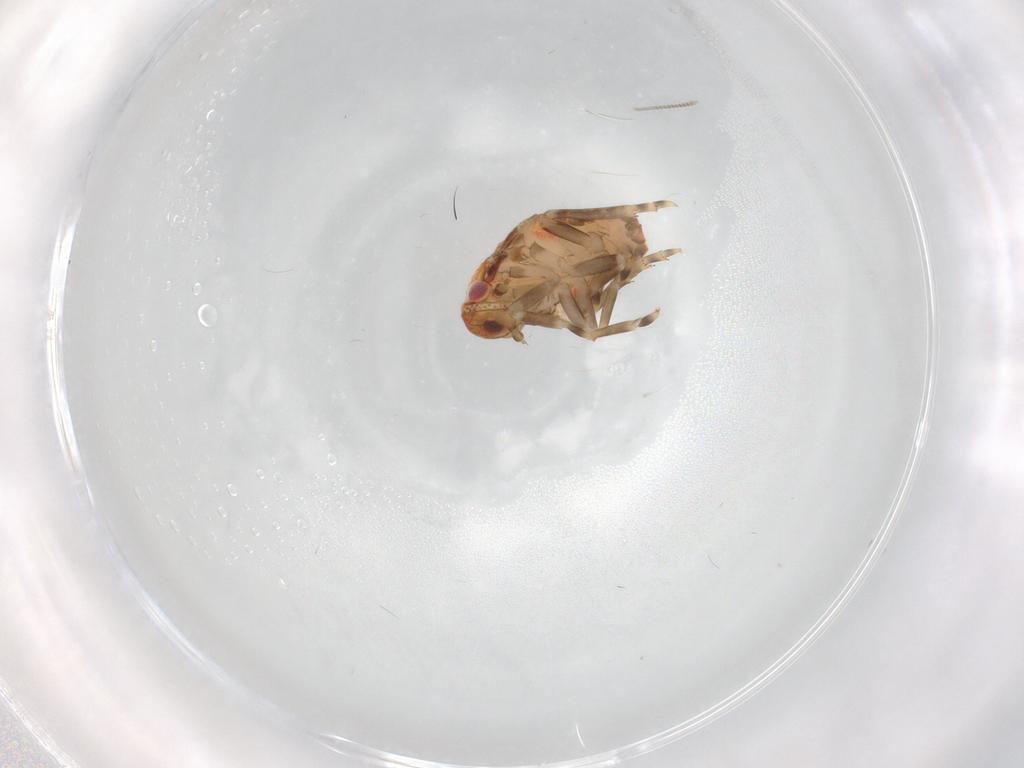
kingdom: Animalia
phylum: Arthropoda
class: Insecta
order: Hemiptera
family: Flatidae
